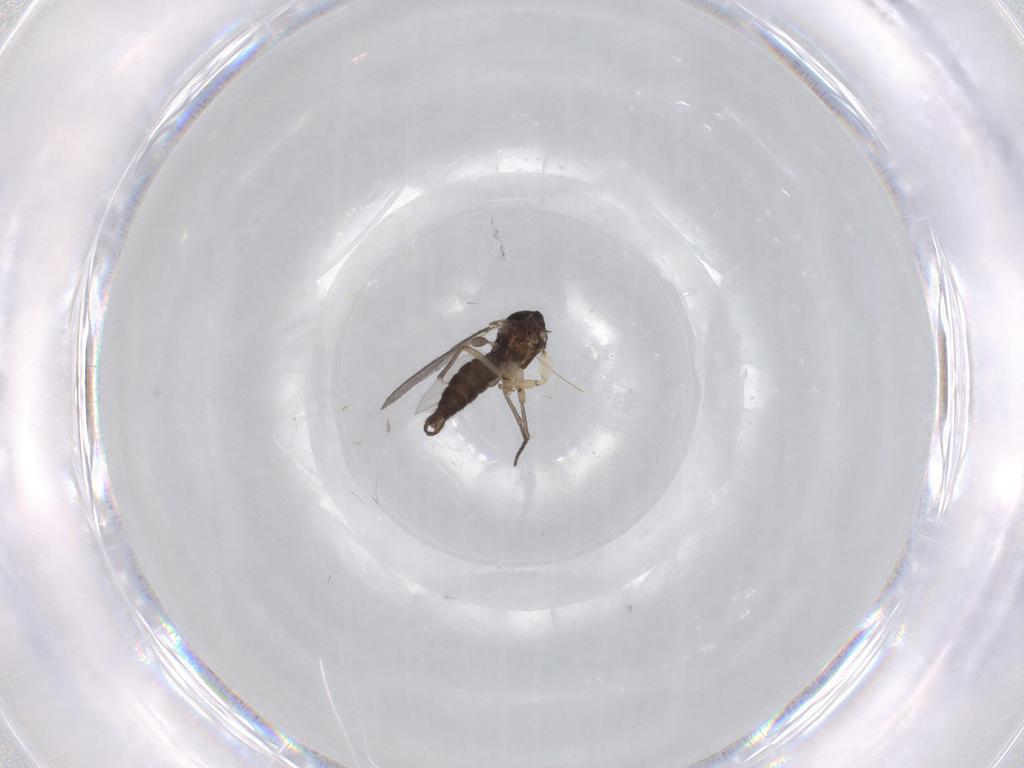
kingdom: Animalia
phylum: Arthropoda
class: Insecta
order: Diptera
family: Sciaridae
